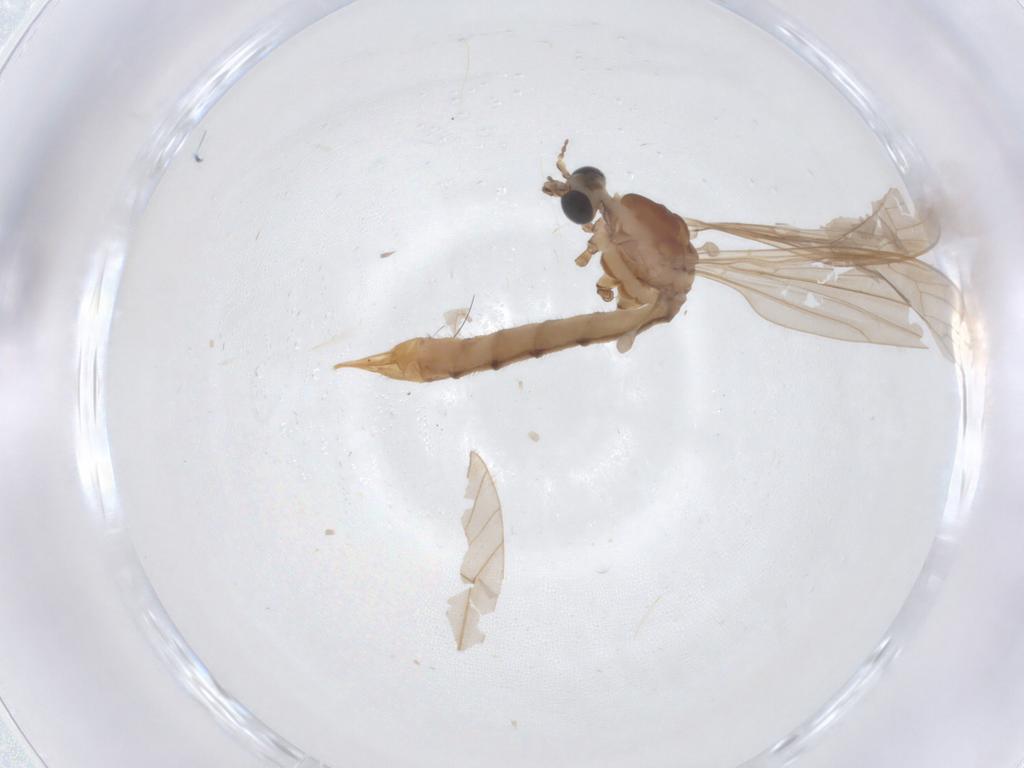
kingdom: Animalia
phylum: Arthropoda
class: Insecta
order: Diptera
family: Limoniidae
